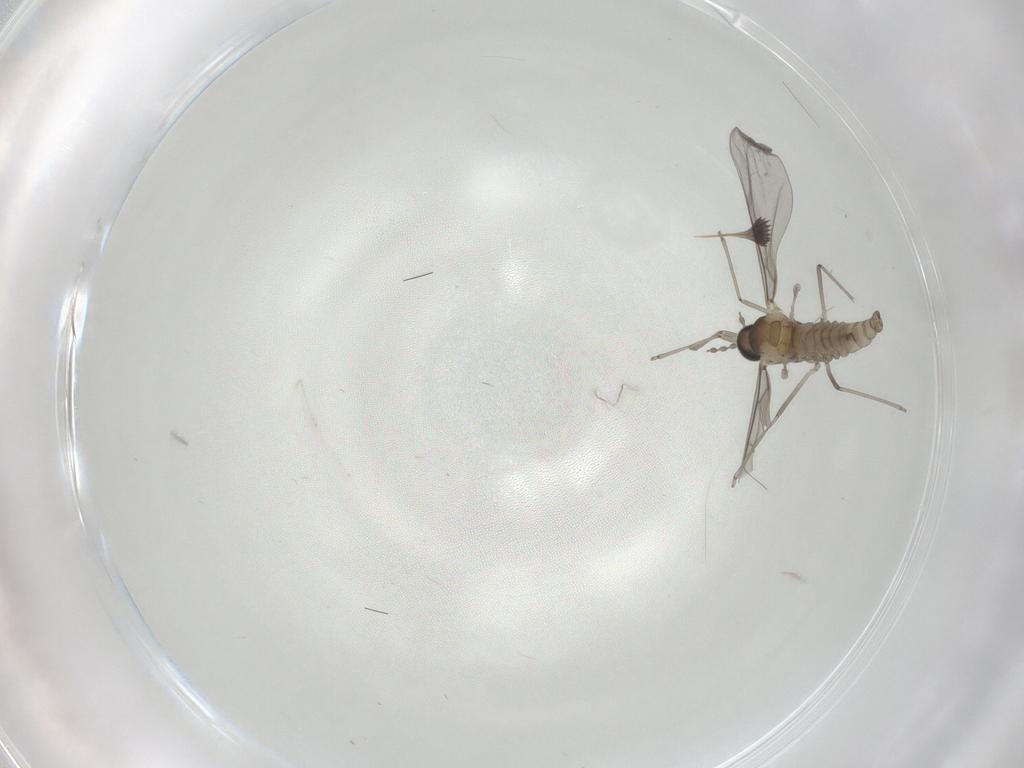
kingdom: Animalia
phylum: Arthropoda
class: Insecta
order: Diptera
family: Cecidomyiidae
